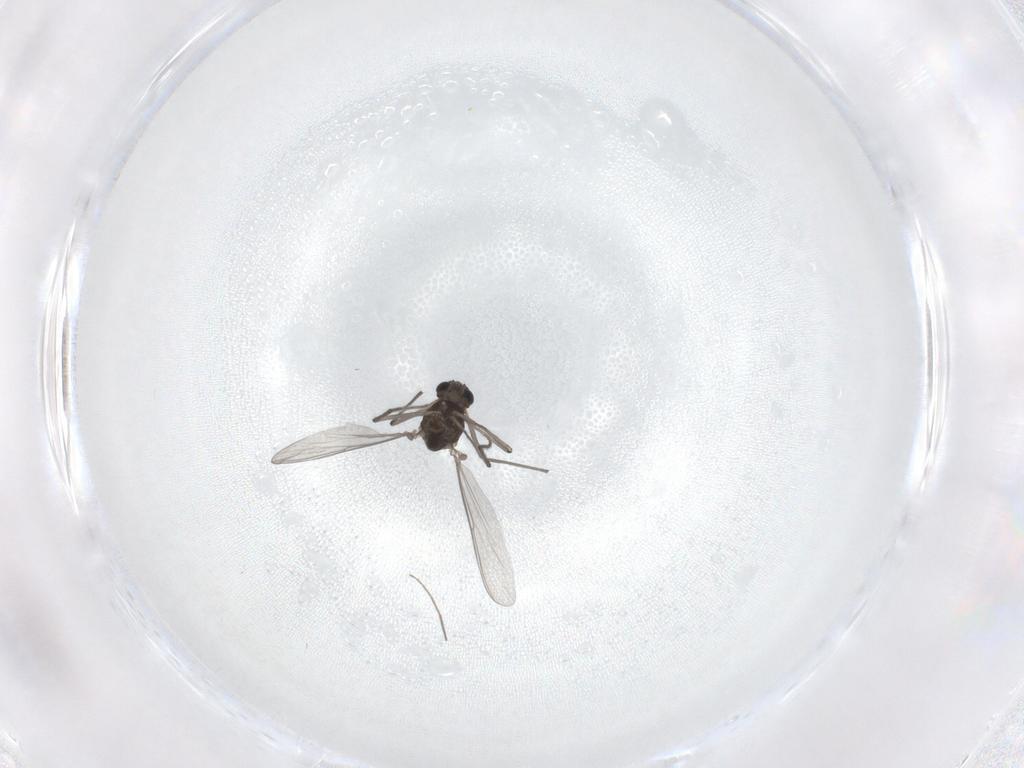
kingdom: Animalia
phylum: Arthropoda
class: Insecta
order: Diptera
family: Chironomidae
